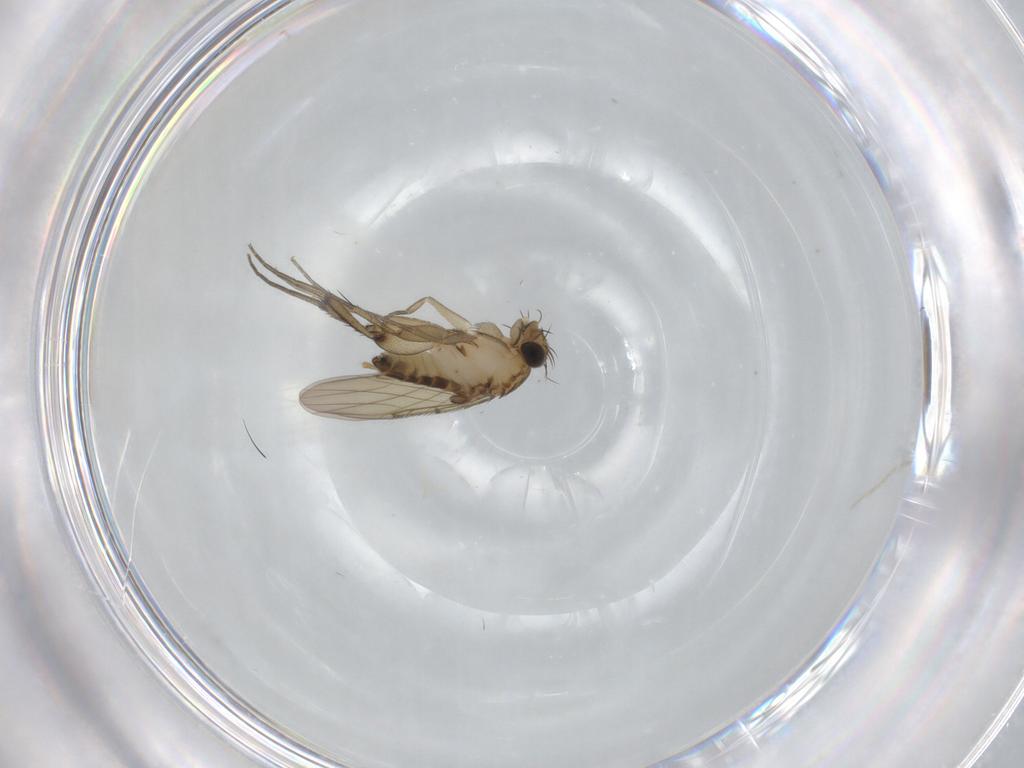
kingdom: Animalia
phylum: Arthropoda
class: Insecta
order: Diptera
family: Phoridae
